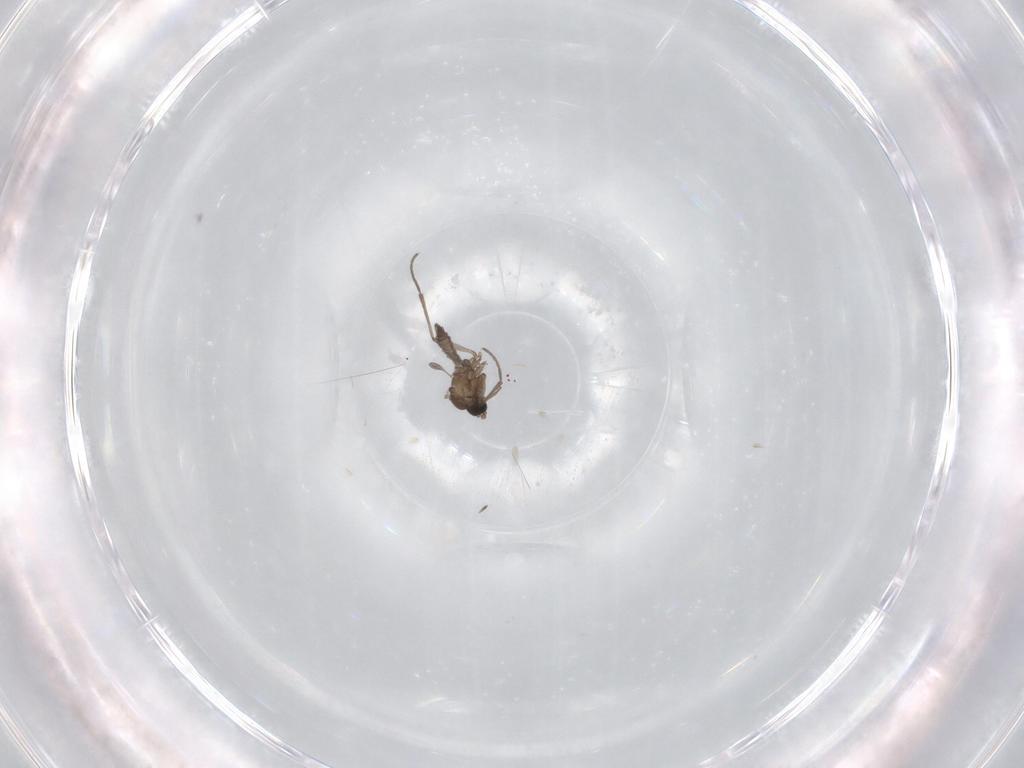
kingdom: Animalia
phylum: Arthropoda
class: Insecta
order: Diptera
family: Sciaridae
